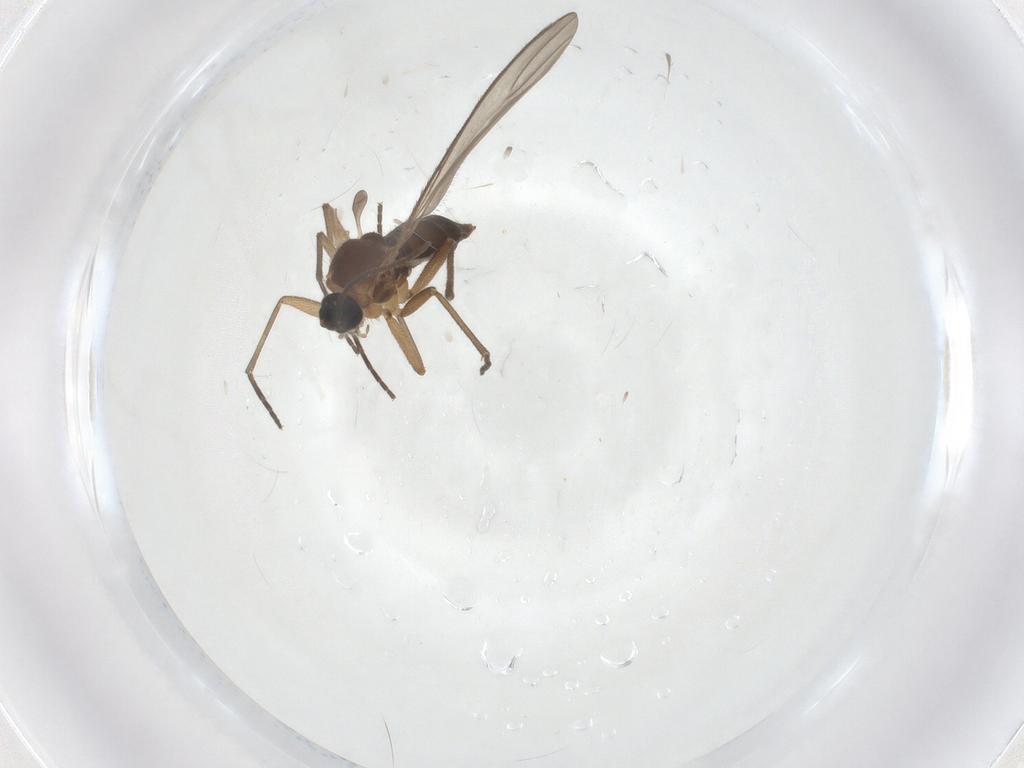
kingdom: Animalia
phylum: Arthropoda
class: Insecta
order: Diptera
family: Sciaridae
